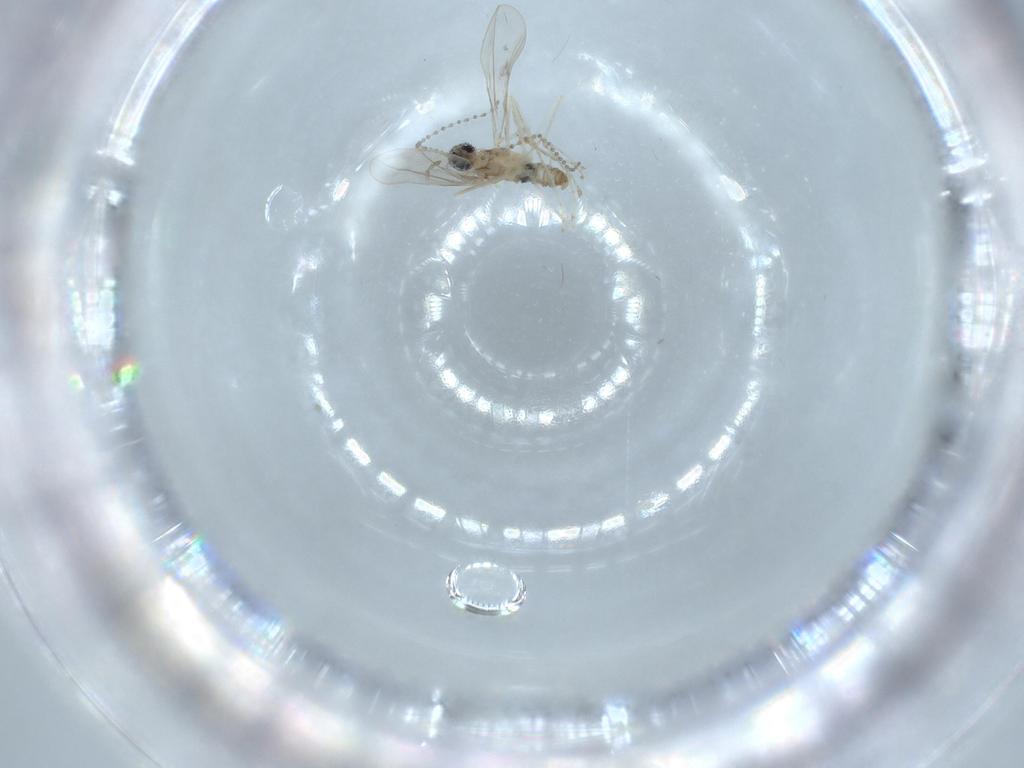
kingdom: Animalia
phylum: Arthropoda
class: Insecta
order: Diptera
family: Cecidomyiidae
